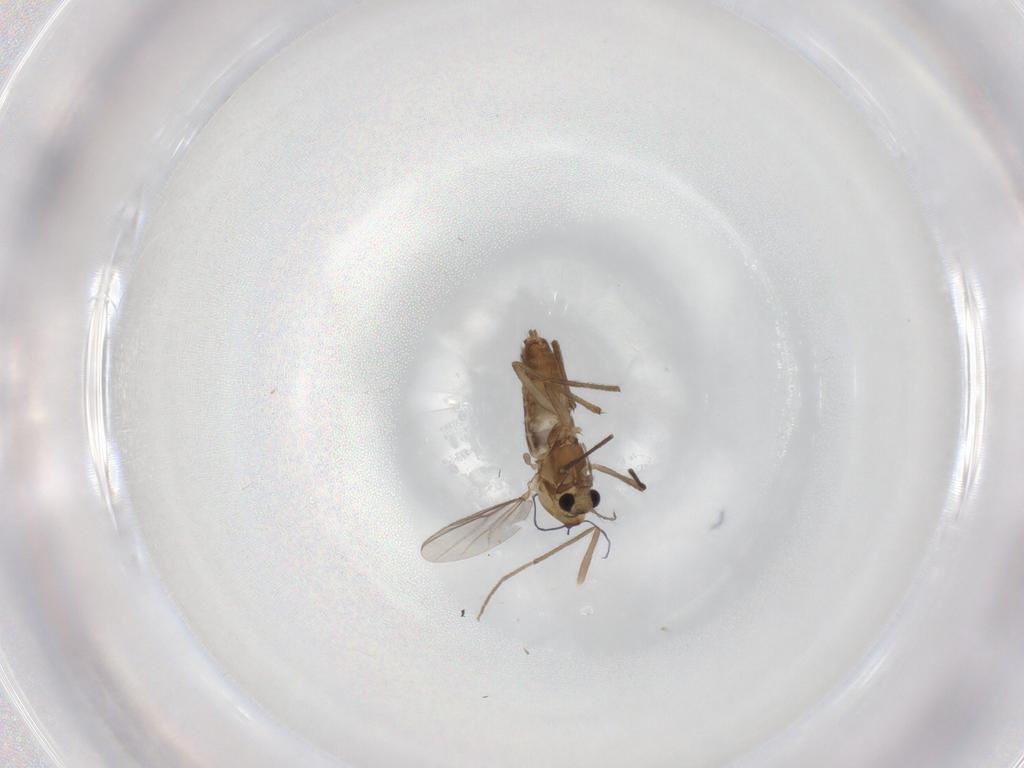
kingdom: Animalia
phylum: Arthropoda
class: Insecta
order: Diptera
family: Chironomidae
